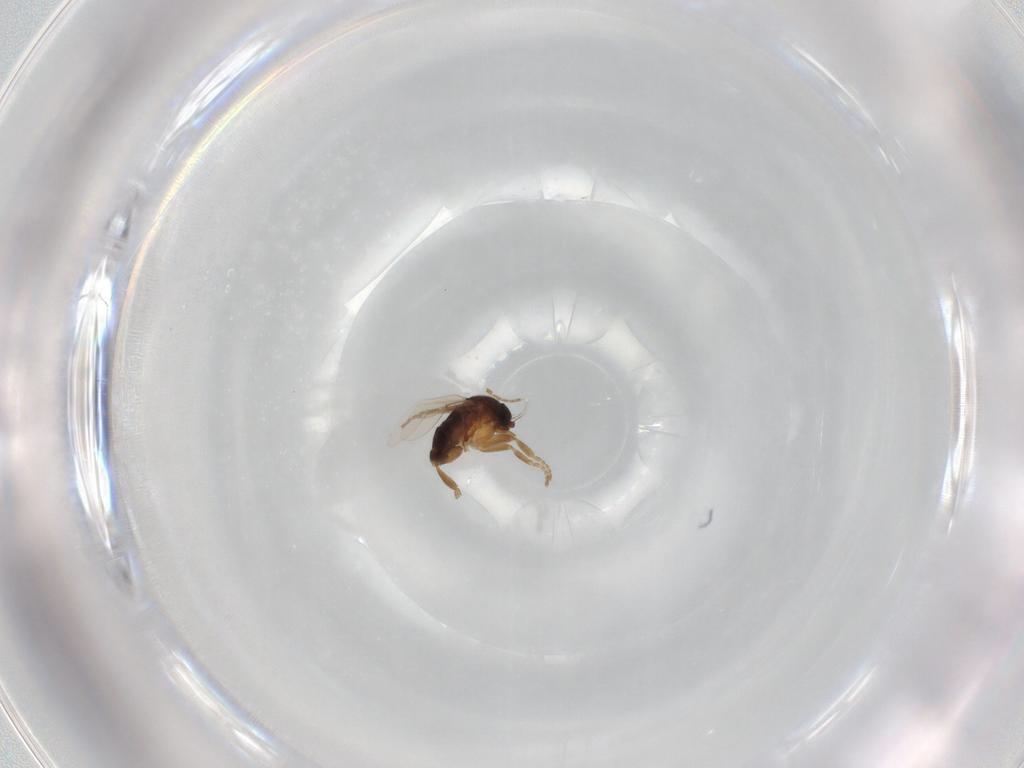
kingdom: Animalia
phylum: Arthropoda
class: Insecta
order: Diptera
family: Phoridae
